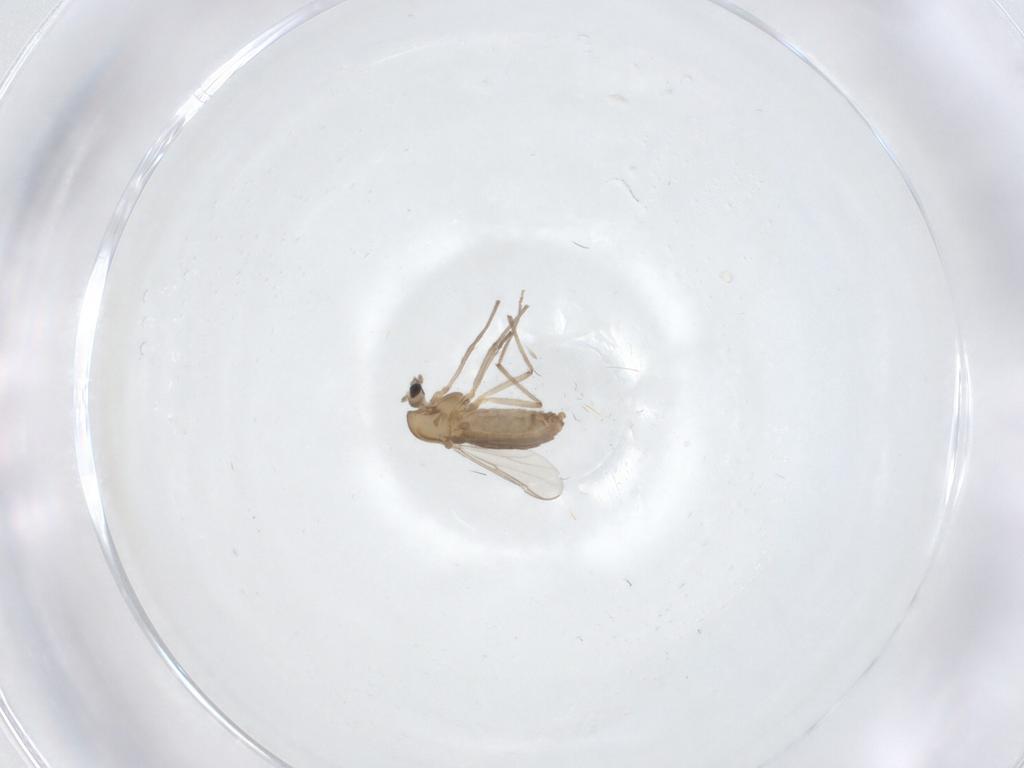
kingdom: Animalia
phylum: Arthropoda
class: Insecta
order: Diptera
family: Chironomidae
